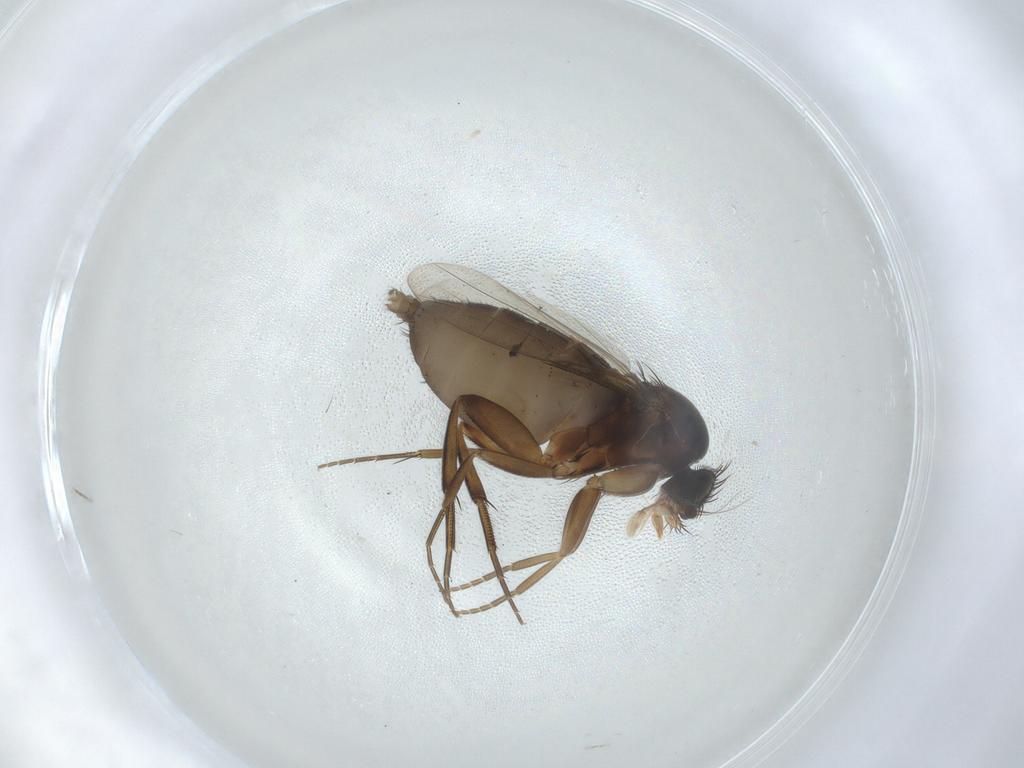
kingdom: Animalia
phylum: Arthropoda
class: Insecta
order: Diptera
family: Phoridae
